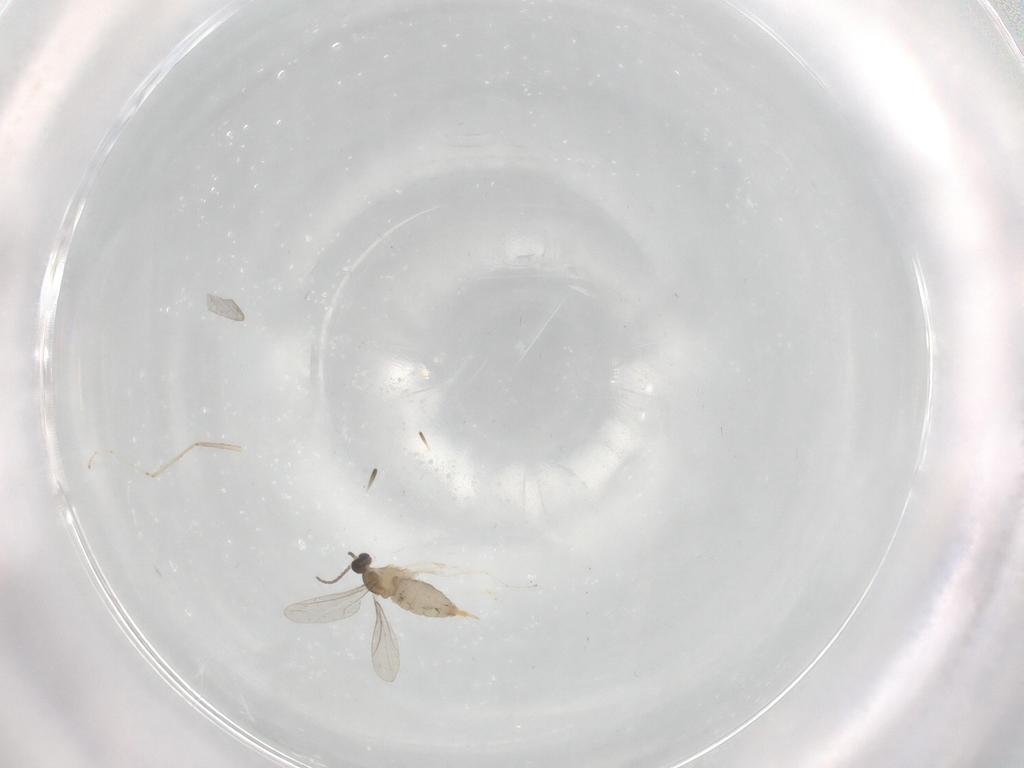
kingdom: Animalia
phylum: Arthropoda
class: Insecta
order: Diptera
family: Cecidomyiidae
